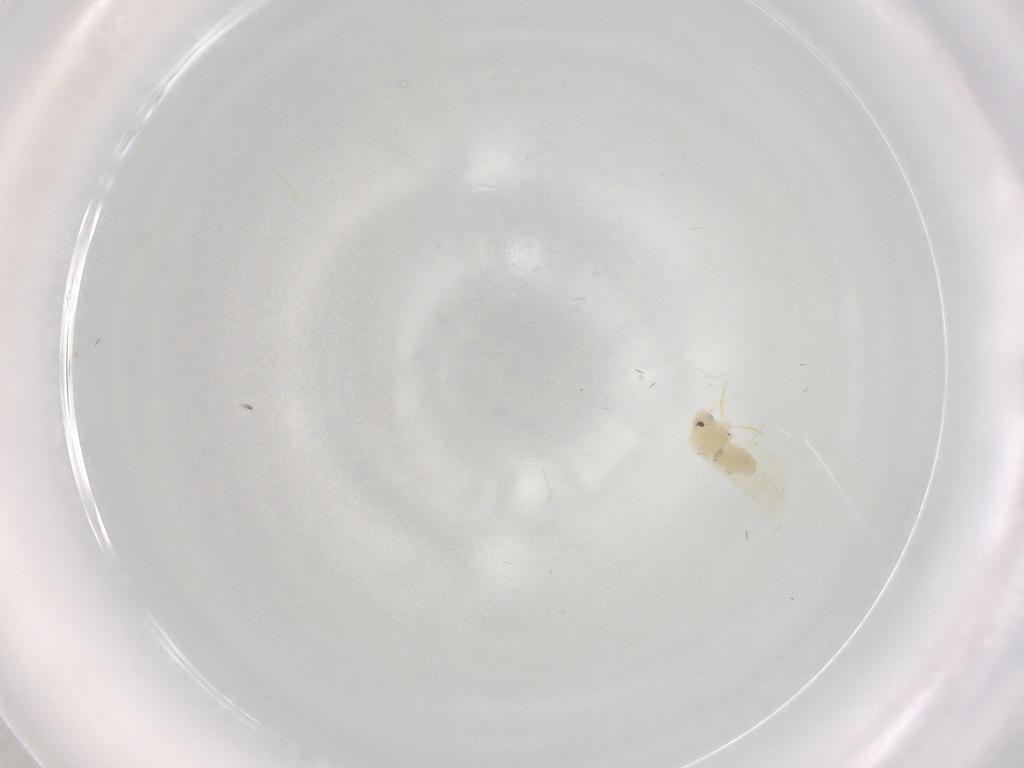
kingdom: Animalia
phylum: Arthropoda
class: Insecta
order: Hemiptera
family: Aleyrodidae
